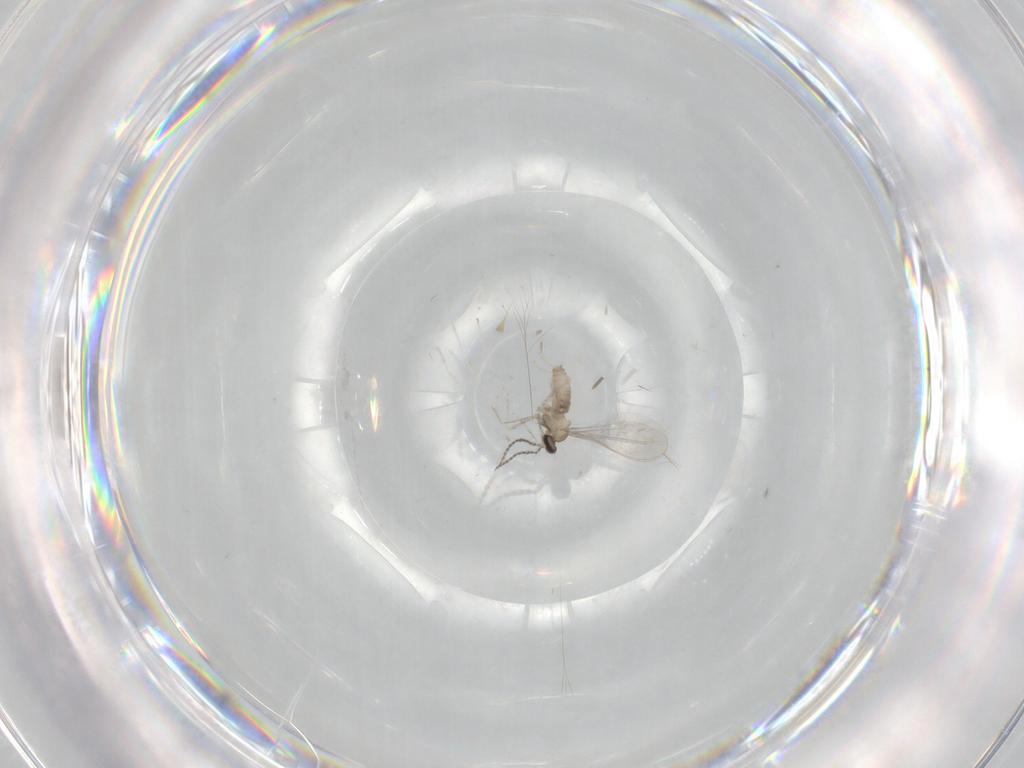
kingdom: Animalia
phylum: Arthropoda
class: Insecta
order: Diptera
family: Cecidomyiidae
